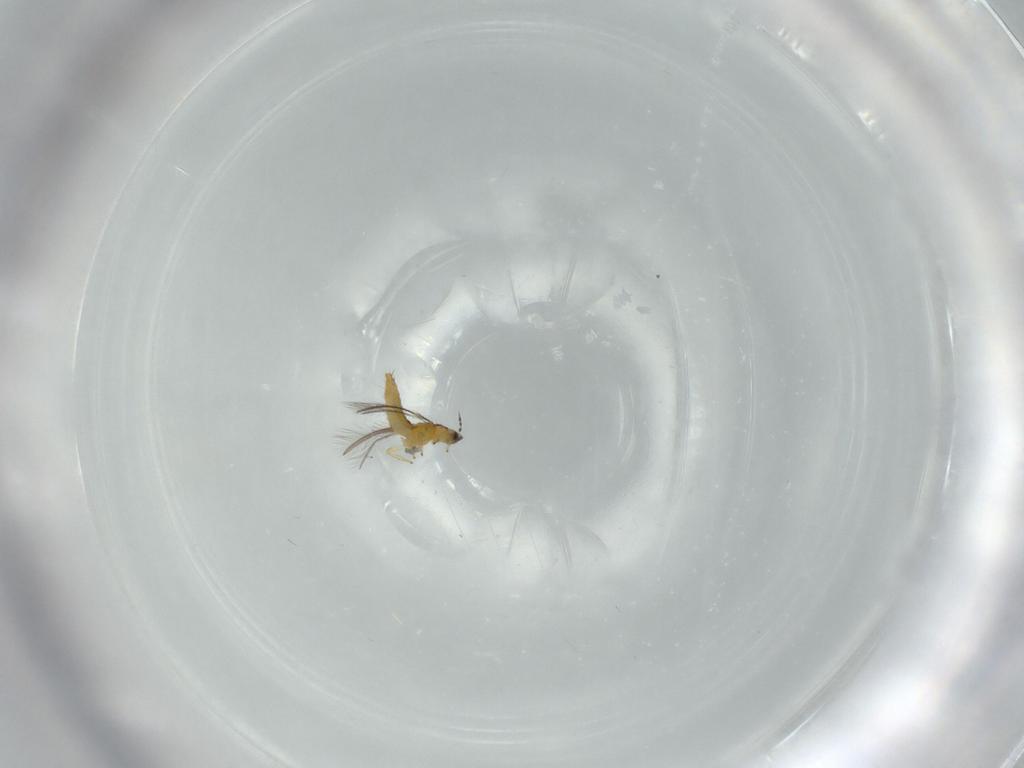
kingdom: Animalia
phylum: Arthropoda
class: Insecta
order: Thysanoptera
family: Thripidae
